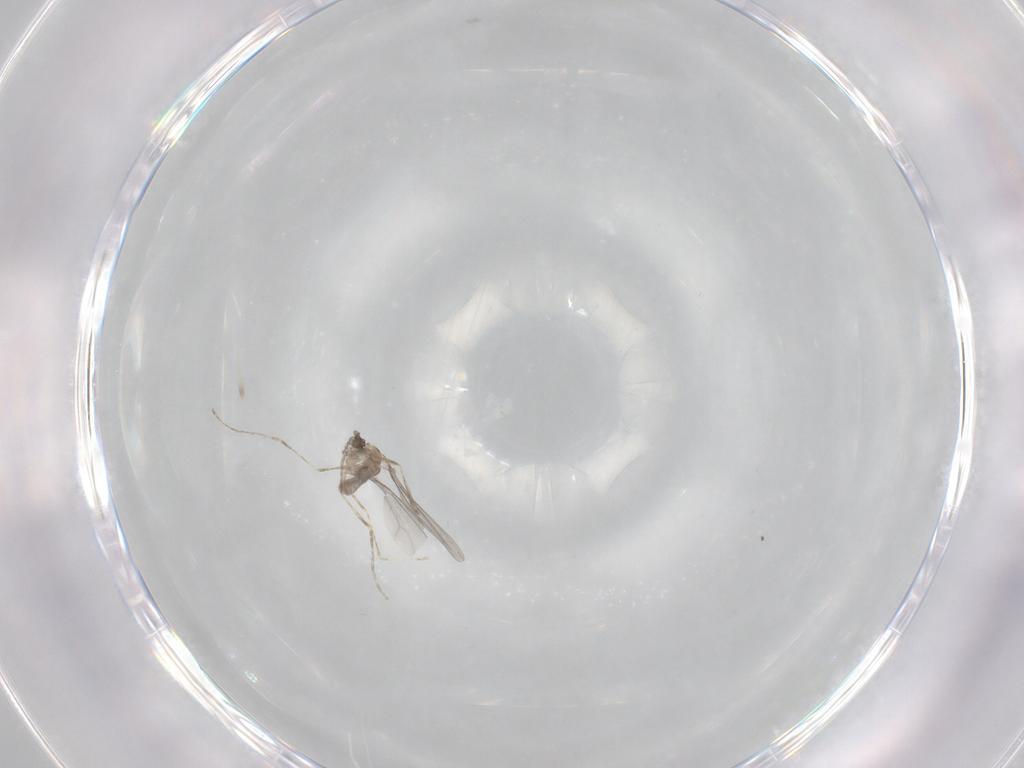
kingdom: Animalia
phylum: Arthropoda
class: Insecta
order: Diptera
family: Cecidomyiidae
